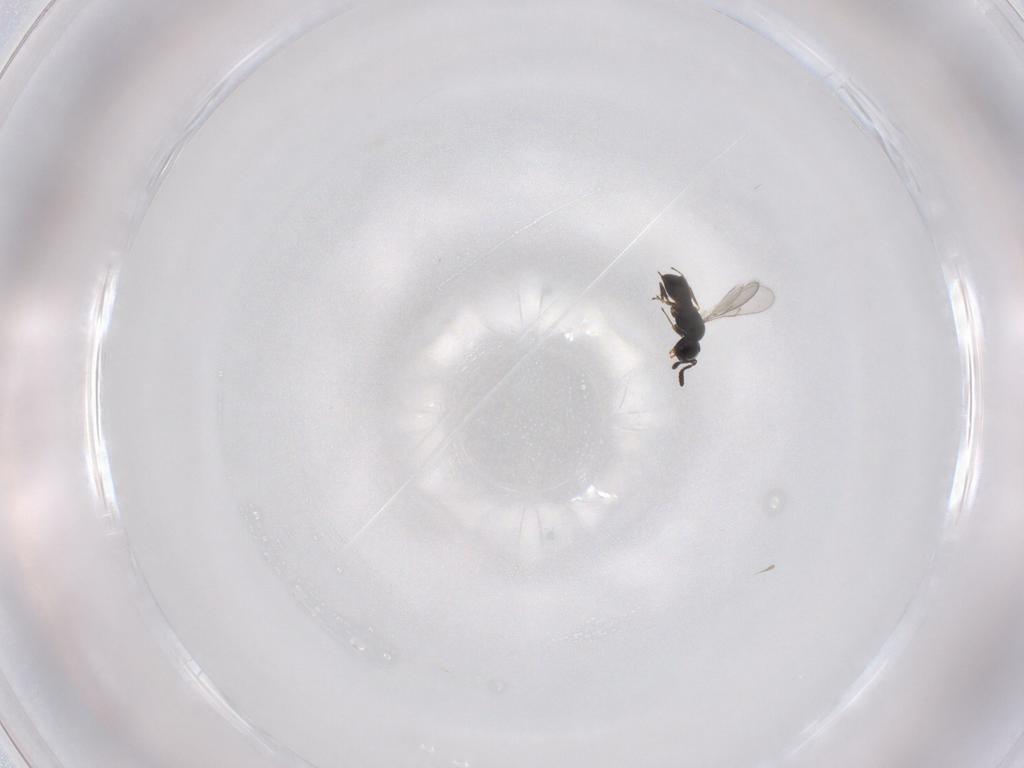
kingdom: Animalia
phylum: Arthropoda
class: Insecta
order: Hymenoptera
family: Scelionidae
